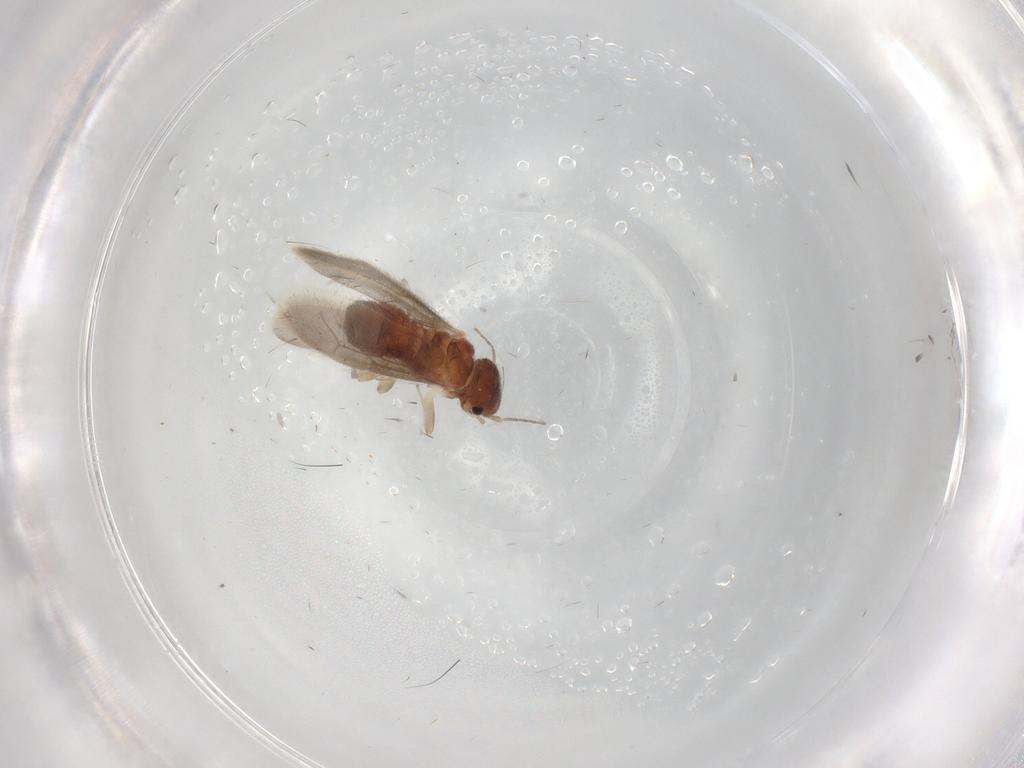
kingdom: Animalia
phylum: Arthropoda
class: Insecta
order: Psocodea
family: Archipsocidae
